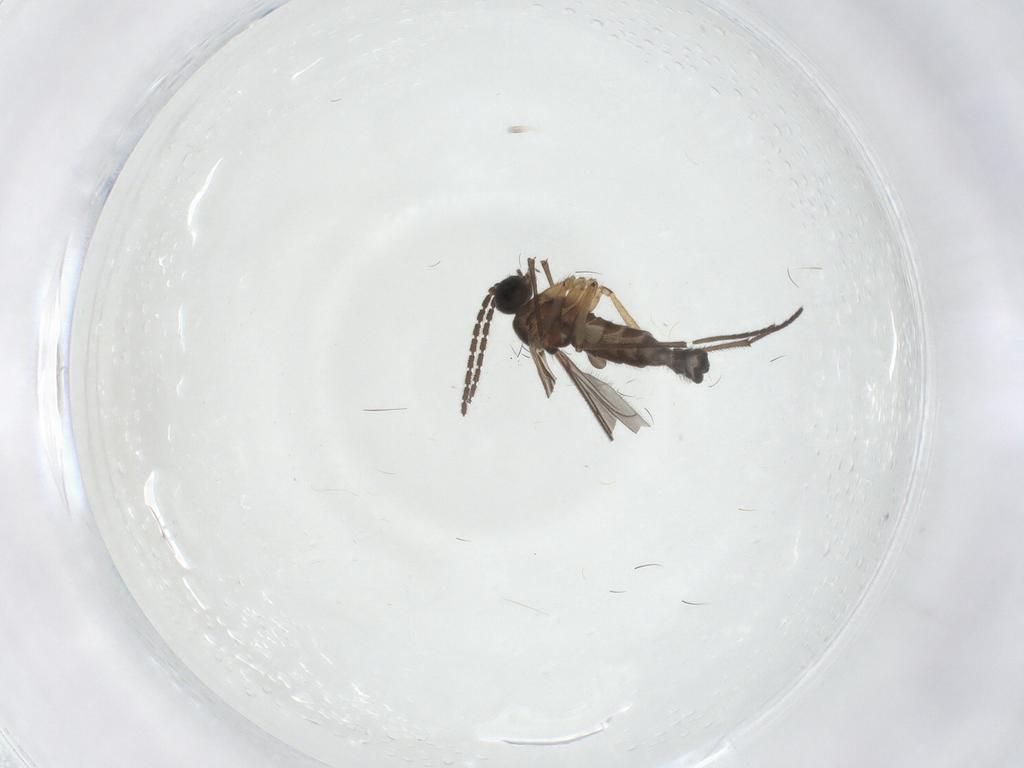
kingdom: Animalia
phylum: Arthropoda
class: Insecta
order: Diptera
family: Sciaridae
